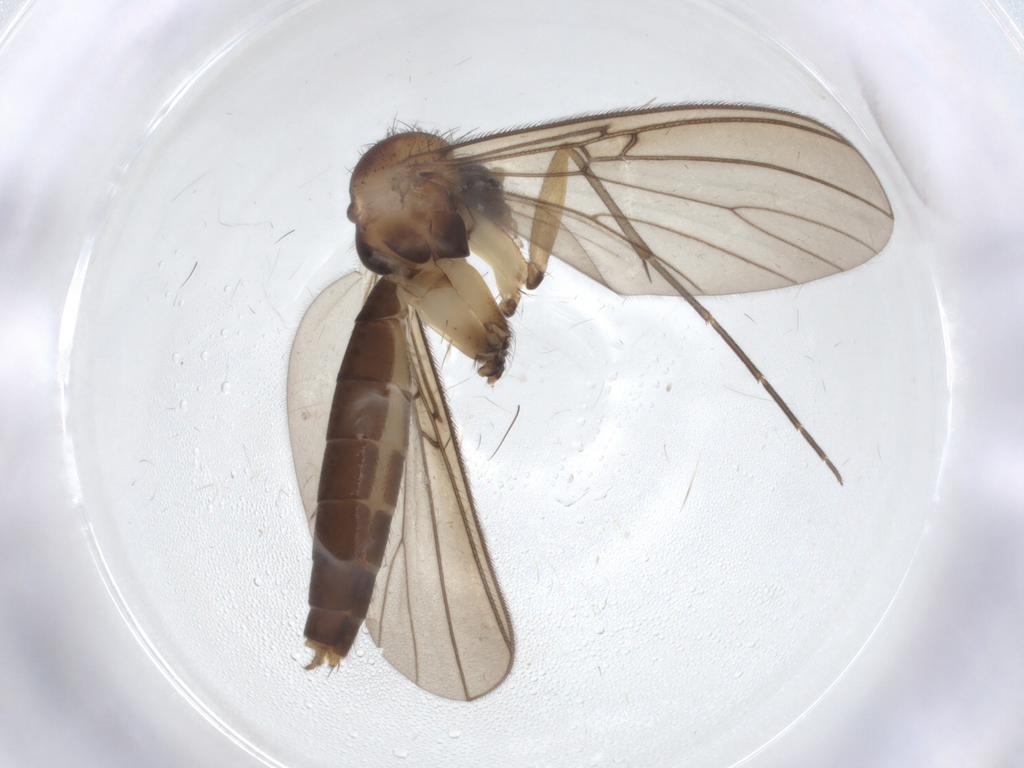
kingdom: Animalia
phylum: Arthropoda
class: Insecta
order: Diptera
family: Mycetophilidae
